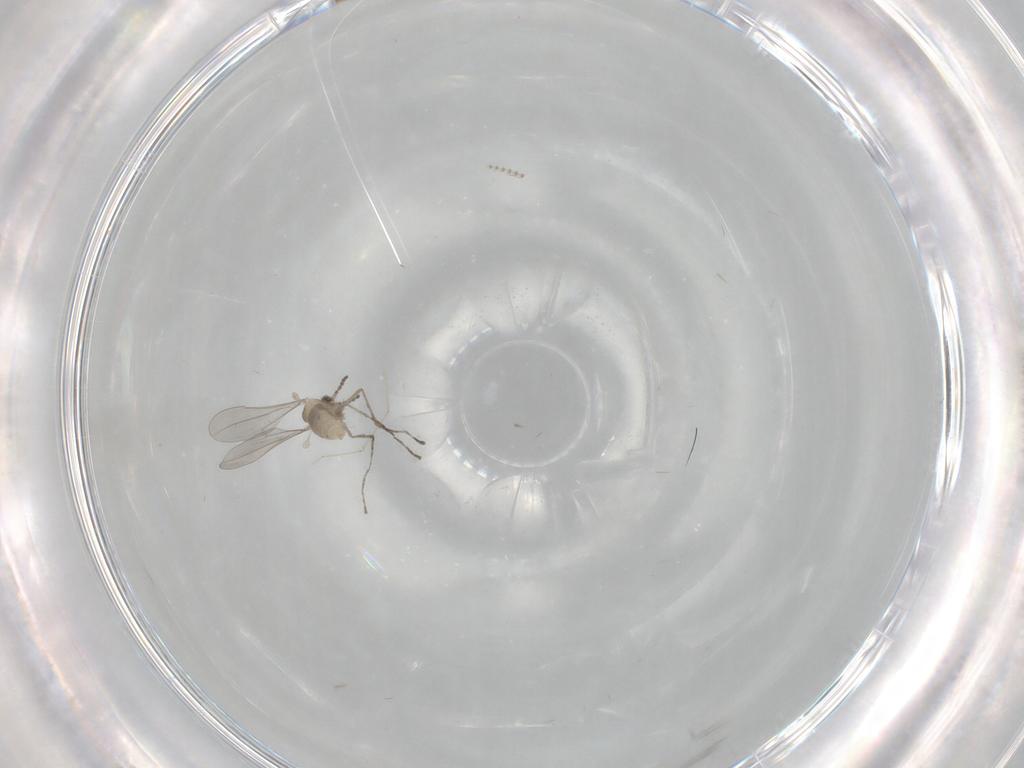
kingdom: Animalia
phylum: Arthropoda
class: Insecta
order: Diptera
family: Cecidomyiidae
